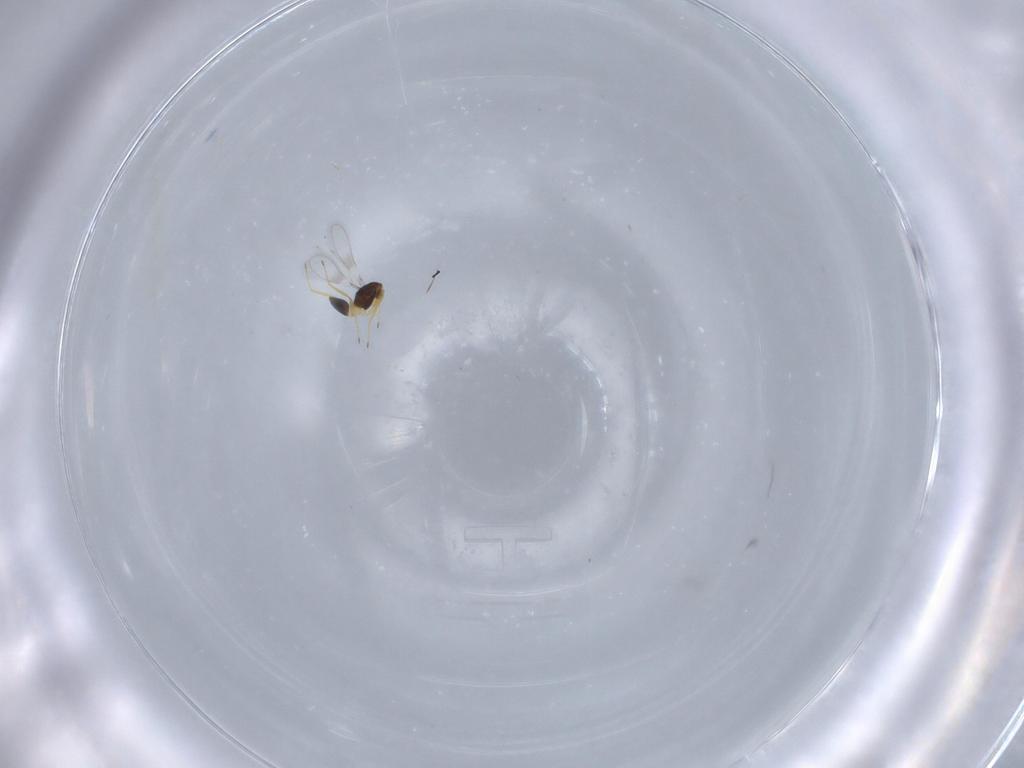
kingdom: Animalia
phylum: Arthropoda
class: Insecta
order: Hymenoptera
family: Mymaridae
